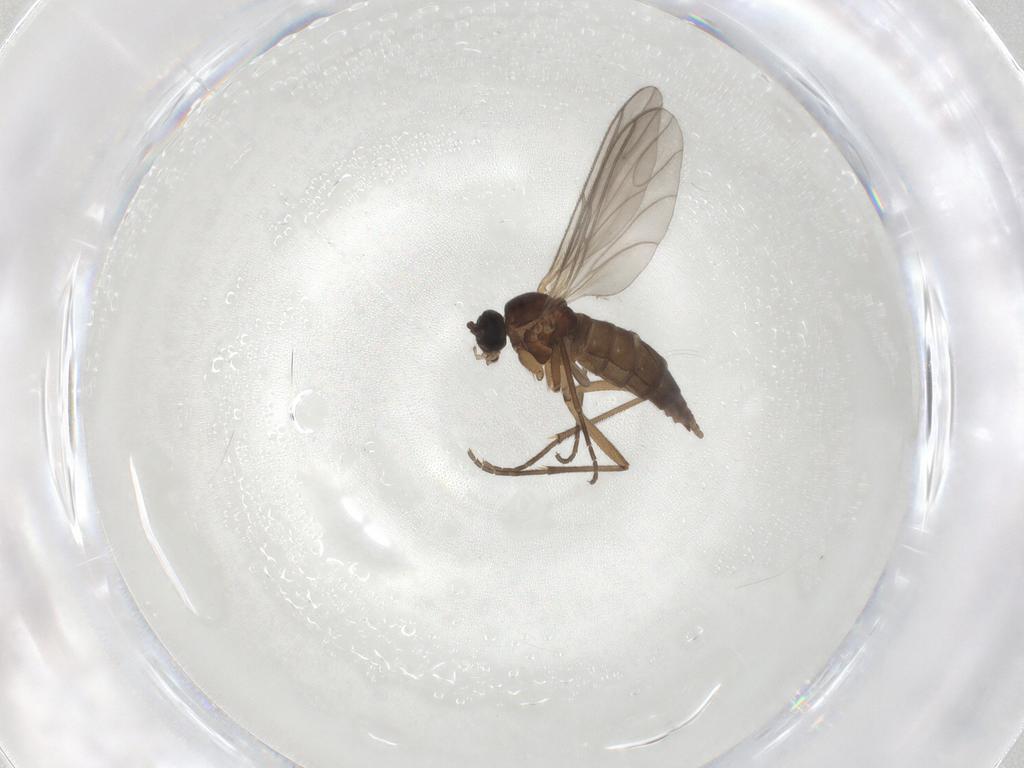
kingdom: Animalia
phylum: Arthropoda
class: Insecta
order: Diptera
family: Sciaridae
